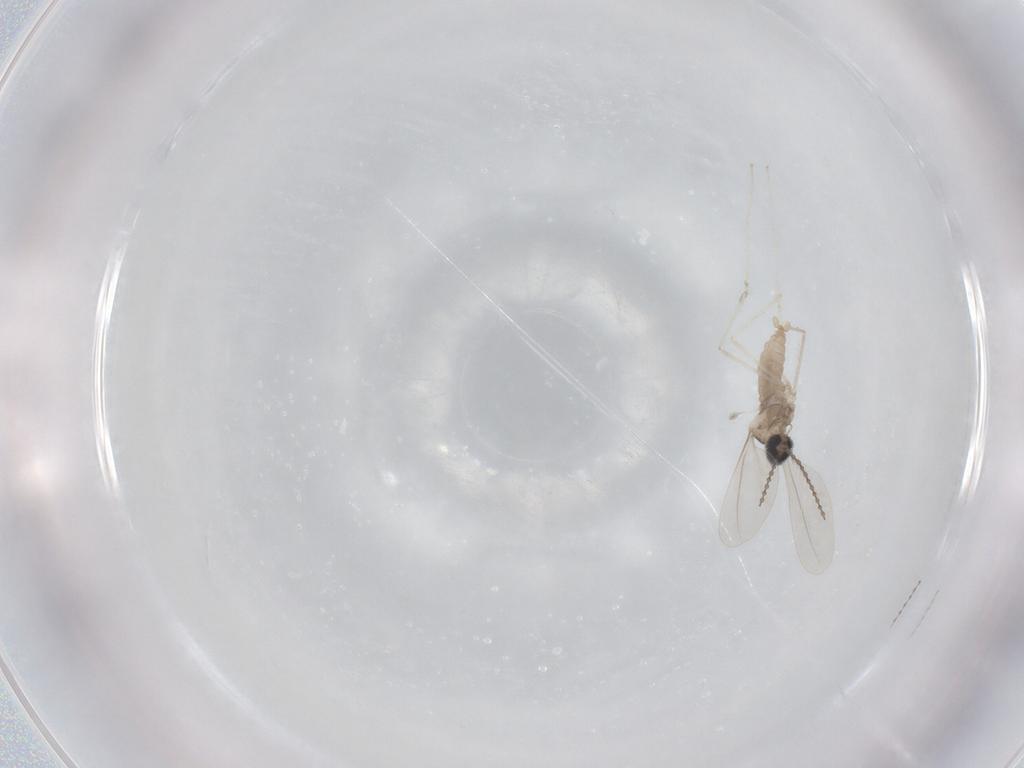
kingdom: Animalia
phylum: Arthropoda
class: Insecta
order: Diptera
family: Cecidomyiidae
